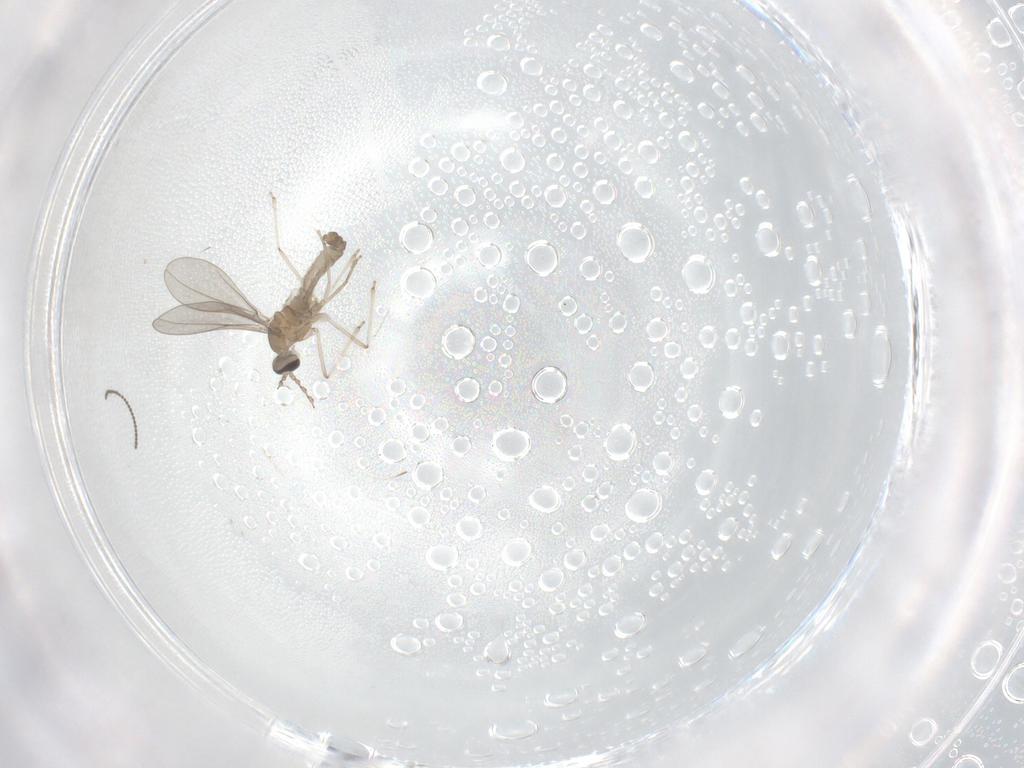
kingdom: Animalia
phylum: Arthropoda
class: Insecta
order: Diptera
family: Cecidomyiidae
